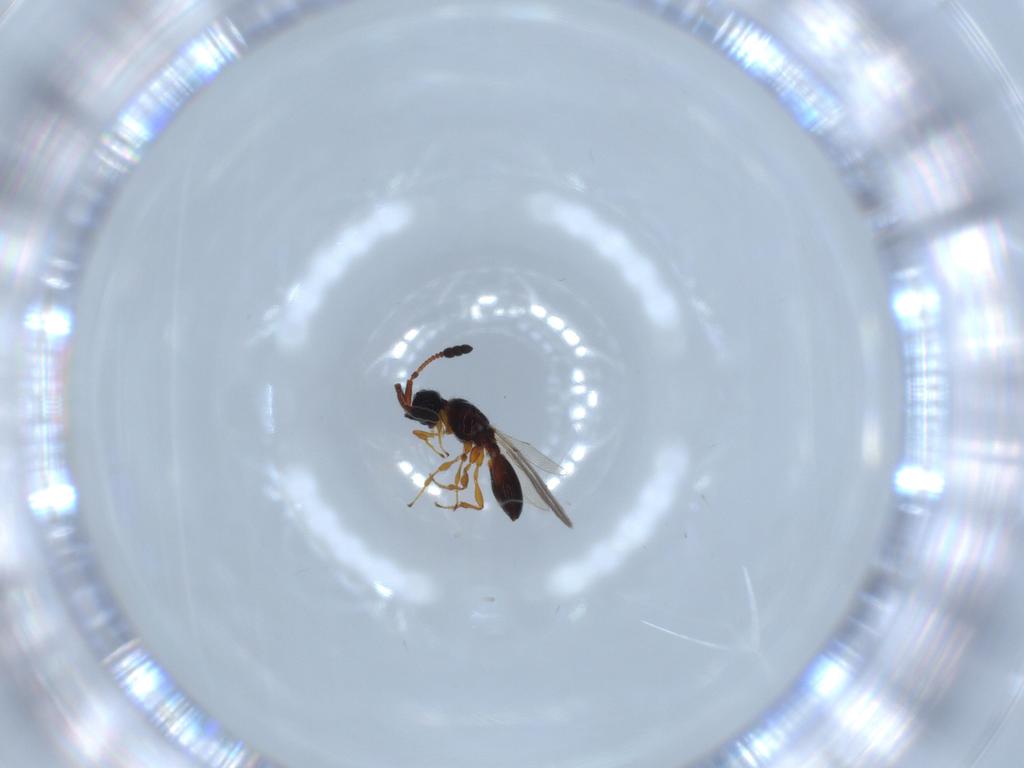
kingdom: Animalia
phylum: Arthropoda
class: Insecta
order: Hymenoptera
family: Diapriidae
